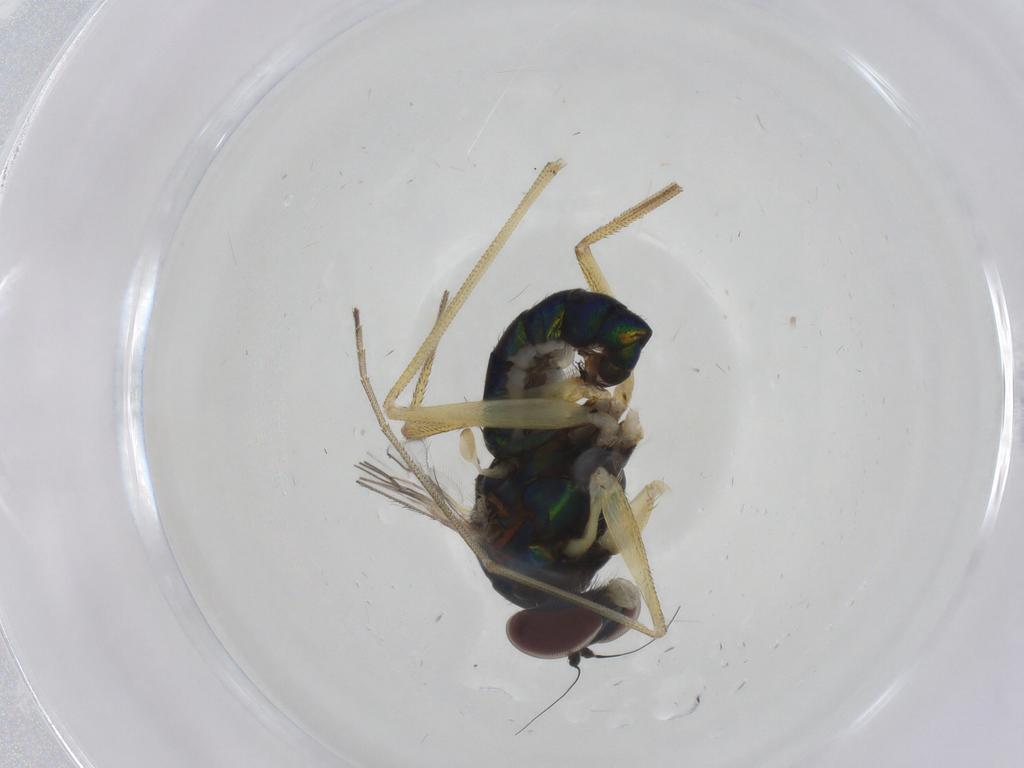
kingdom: Animalia
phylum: Arthropoda
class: Insecta
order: Diptera
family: Dolichopodidae
